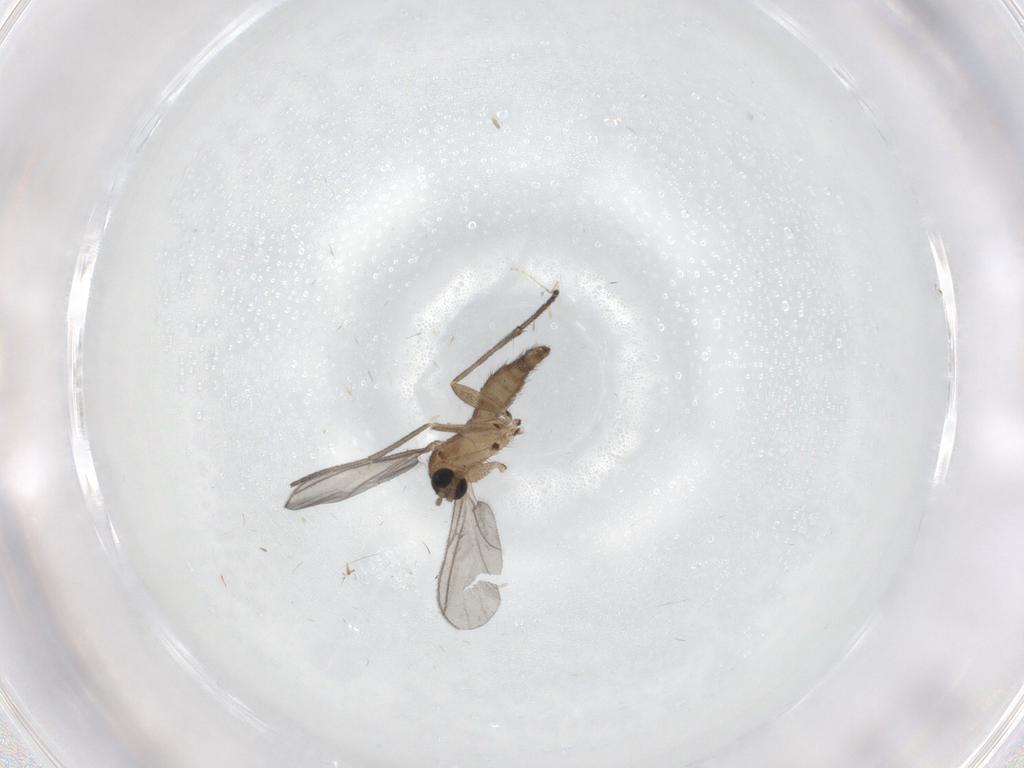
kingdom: Animalia
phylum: Arthropoda
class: Insecta
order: Diptera
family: Sciaridae
